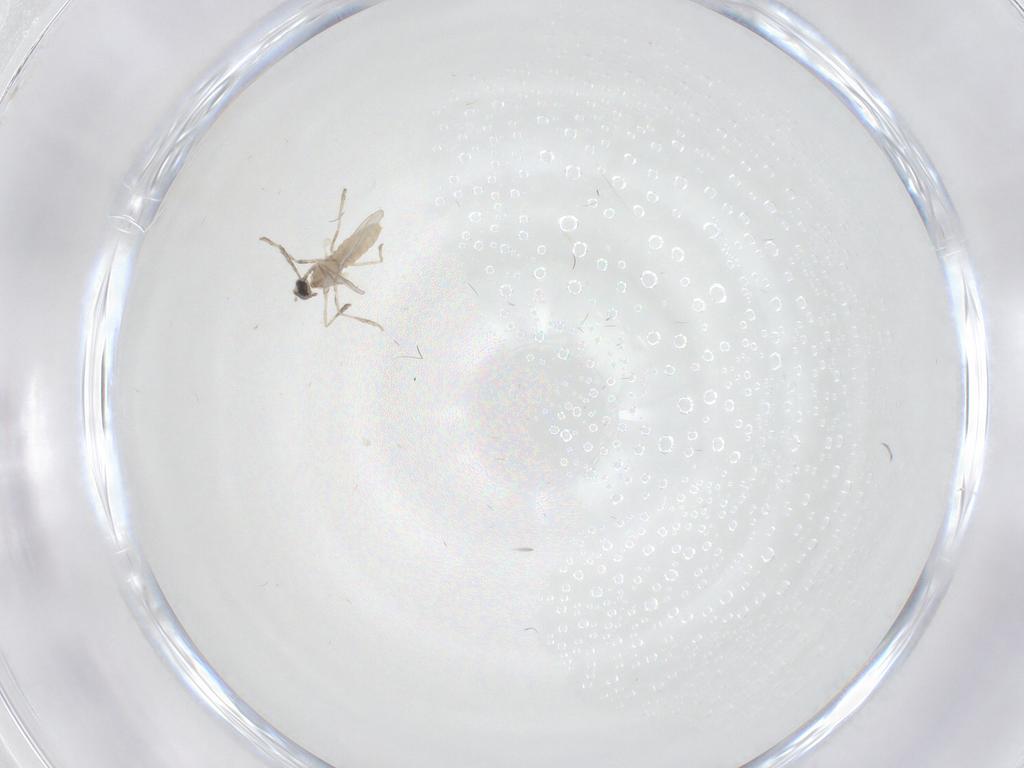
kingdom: Animalia
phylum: Arthropoda
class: Insecta
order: Diptera
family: Cecidomyiidae
